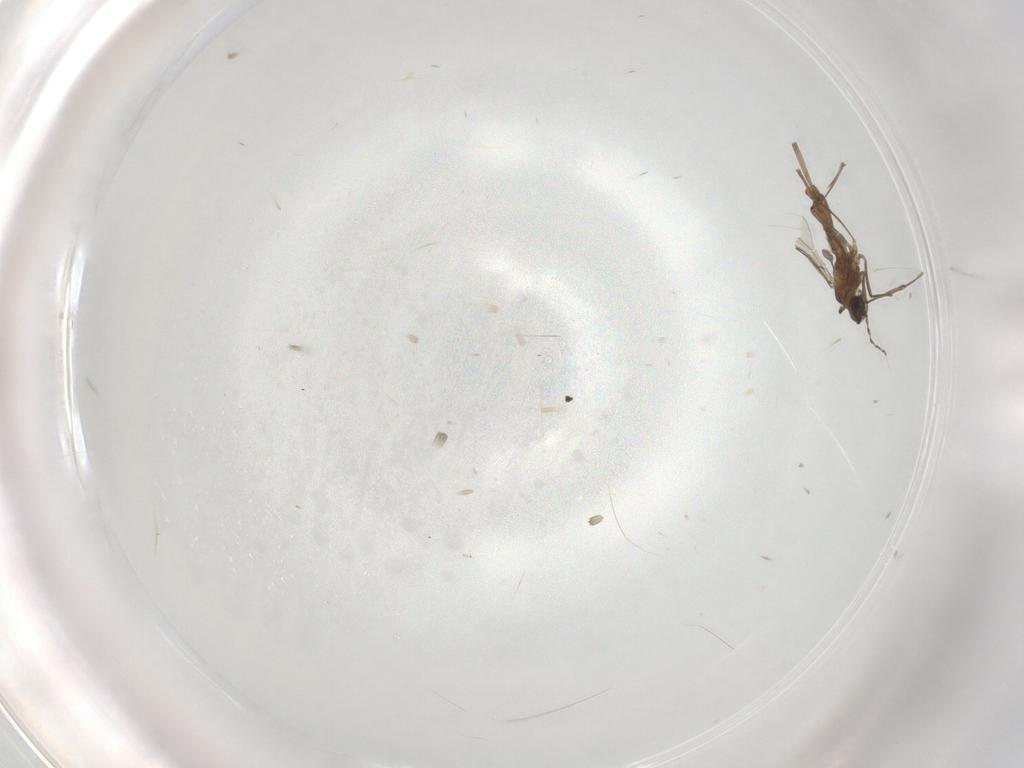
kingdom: Animalia
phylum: Arthropoda
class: Insecta
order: Diptera
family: Cecidomyiidae
